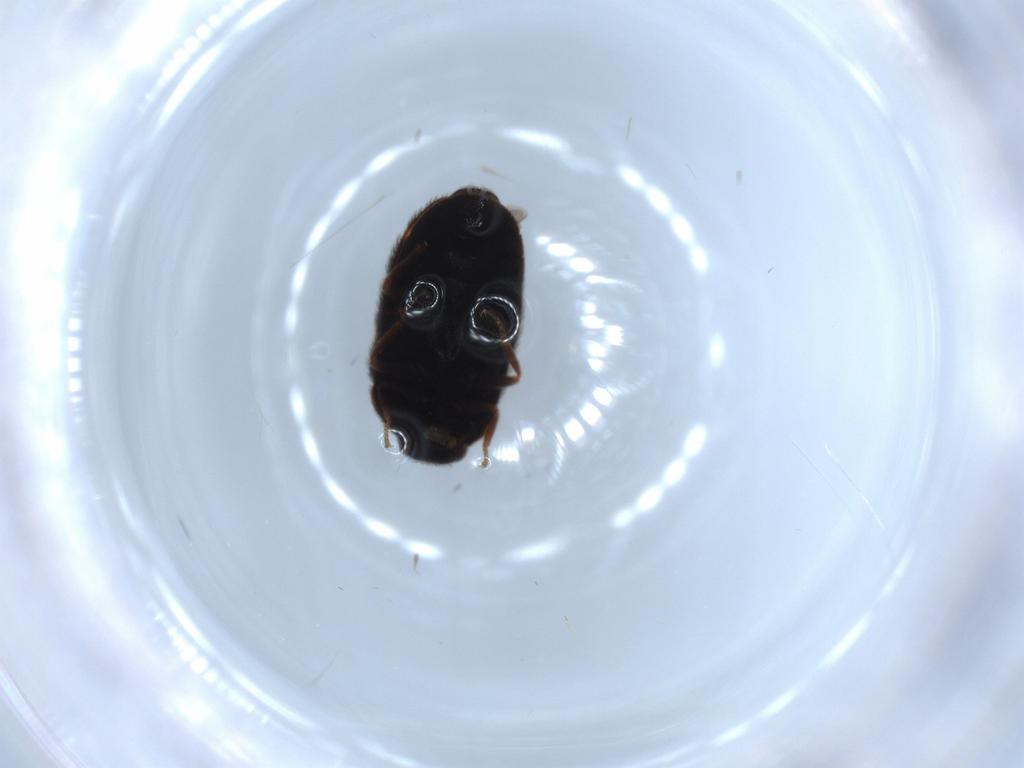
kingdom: Animalia
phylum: Arthropoda
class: Insecta
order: Coleoptera
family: Dermestidae
